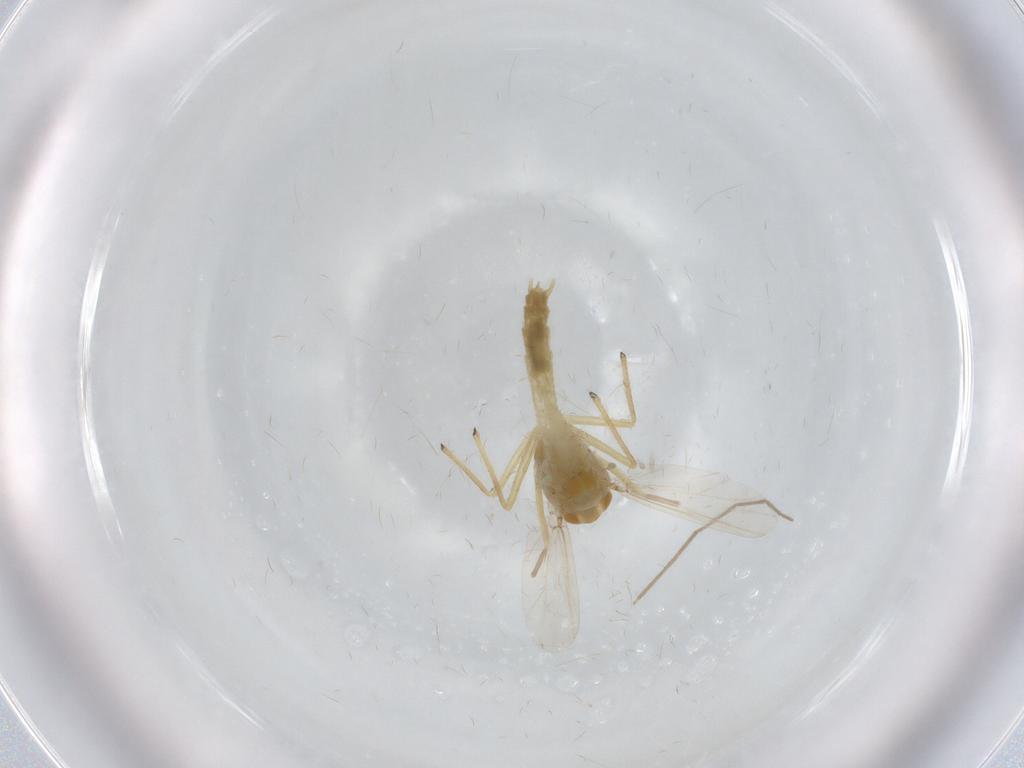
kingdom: Animalia
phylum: Arthropoda
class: Insecta
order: Diptera
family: Chironomidae
